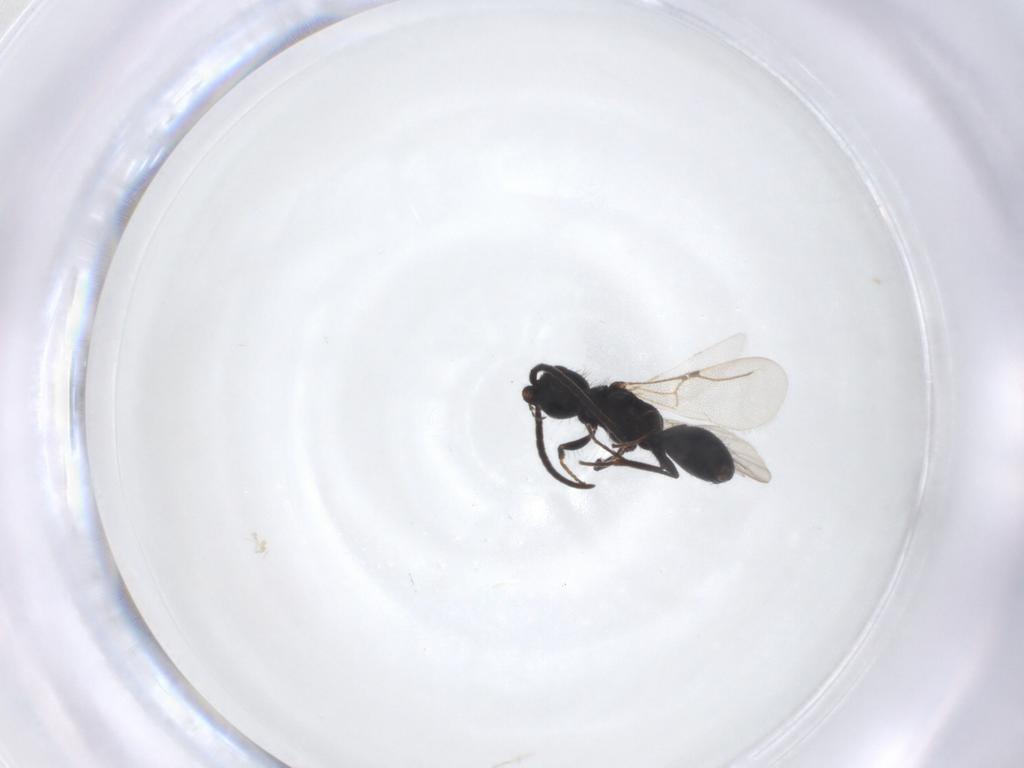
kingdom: Animalia
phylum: Arthropoda
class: Insecta
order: Hymenoptera
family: Bethylidae
